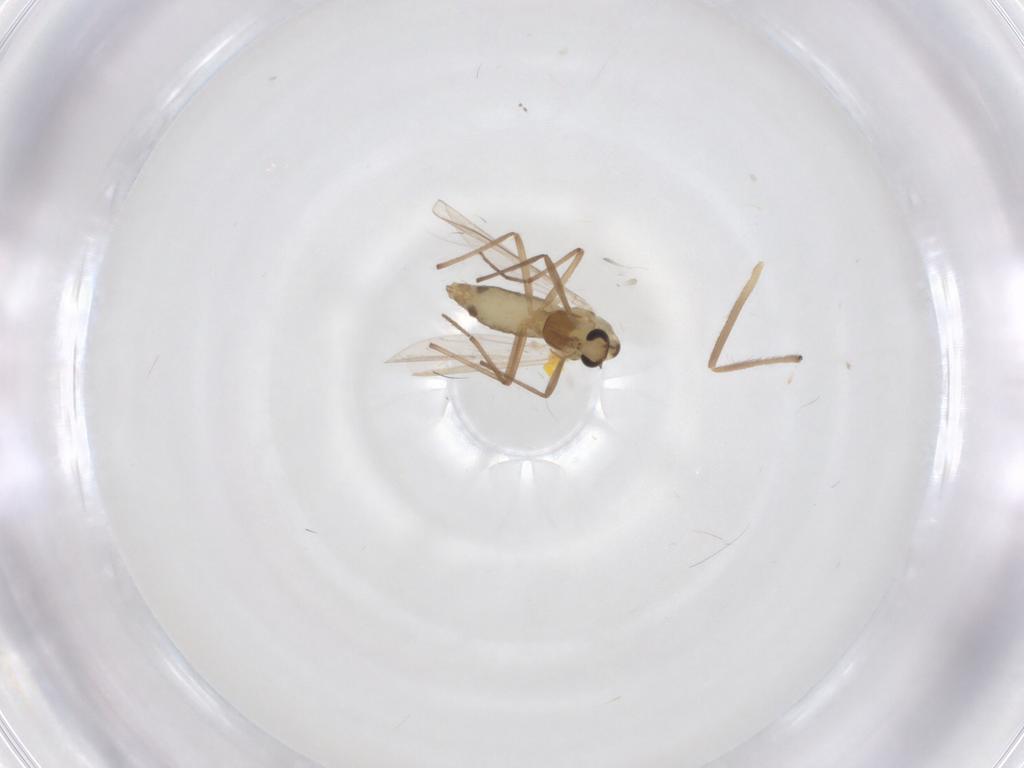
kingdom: Animalia
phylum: Arthropoda
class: Insecta
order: Diptera
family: Chironomidae
